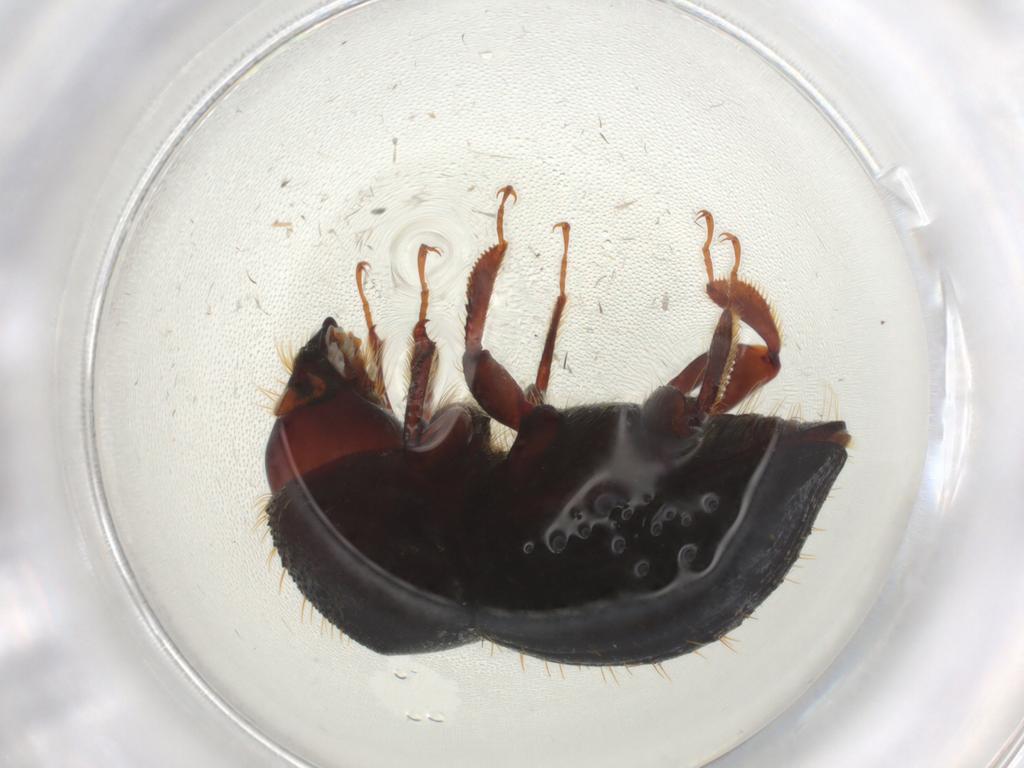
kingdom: Animalia
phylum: Arthropoda
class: Insecta
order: Coleoptera
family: Curculionidae
